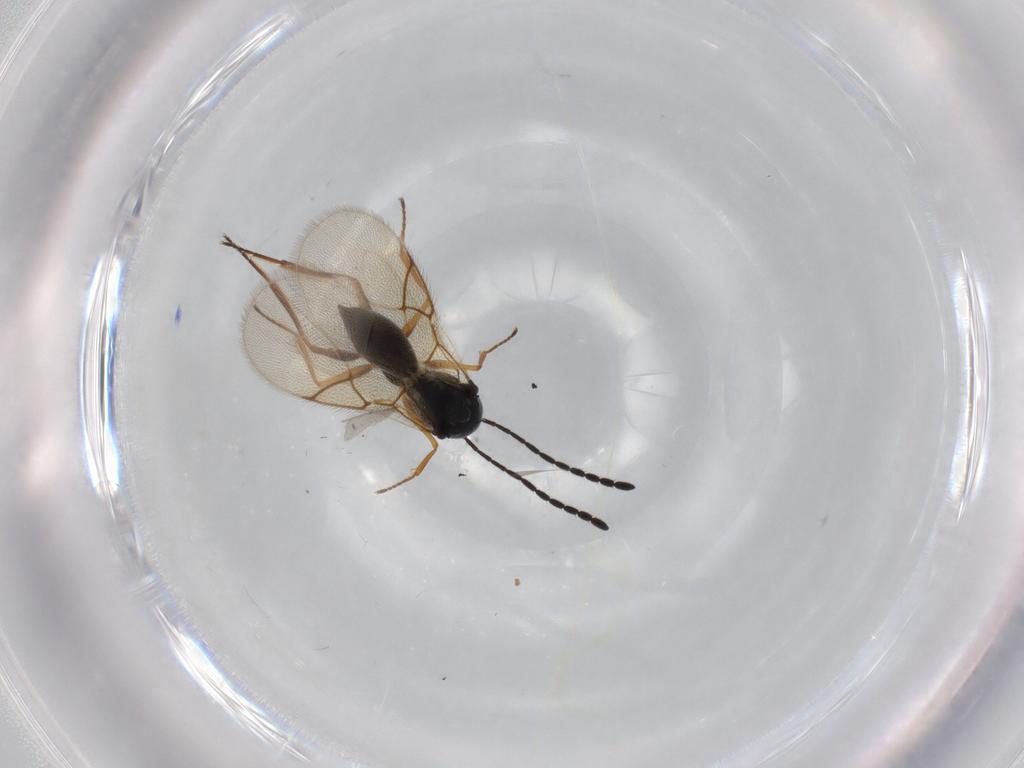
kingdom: Animalia
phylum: Arthropoda
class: Insecta
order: Hymenoptera
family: Figitidae
